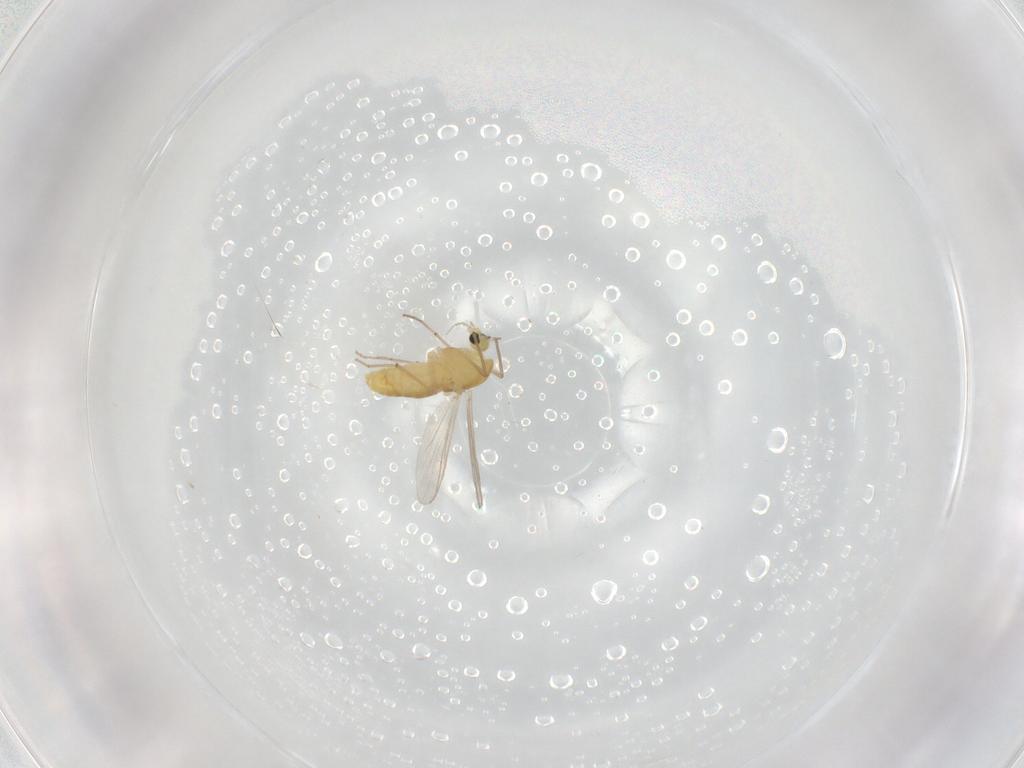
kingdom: Animalia
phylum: Arthropoda
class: Insecta
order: Diptera
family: Chironomidae
